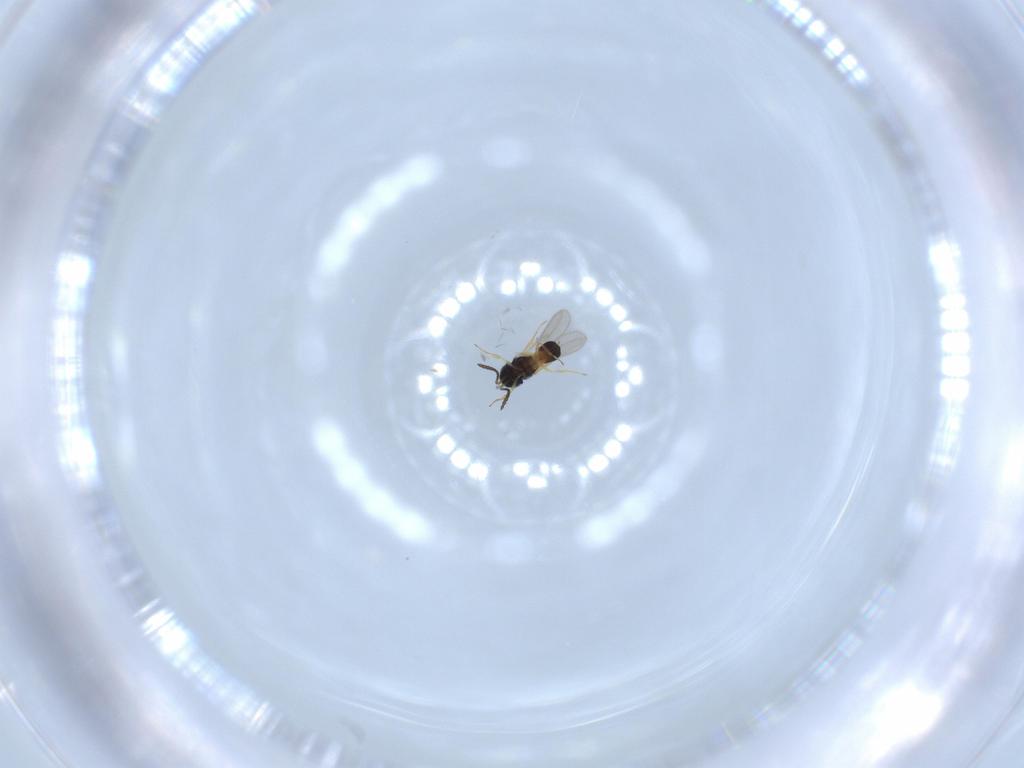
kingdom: Animalia
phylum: Arthropoda
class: Insecta
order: Hymenoptera
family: Scelionidae
